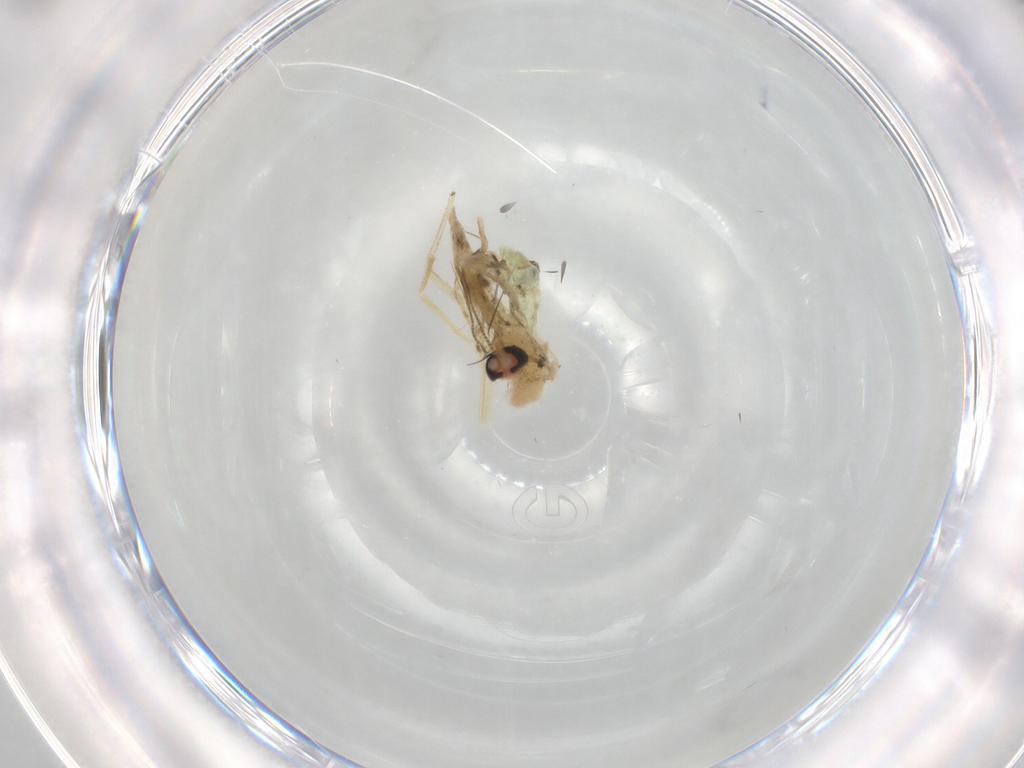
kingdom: Animalia
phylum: Arthropoda
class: Insecta
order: Diptera
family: Chironomidae
